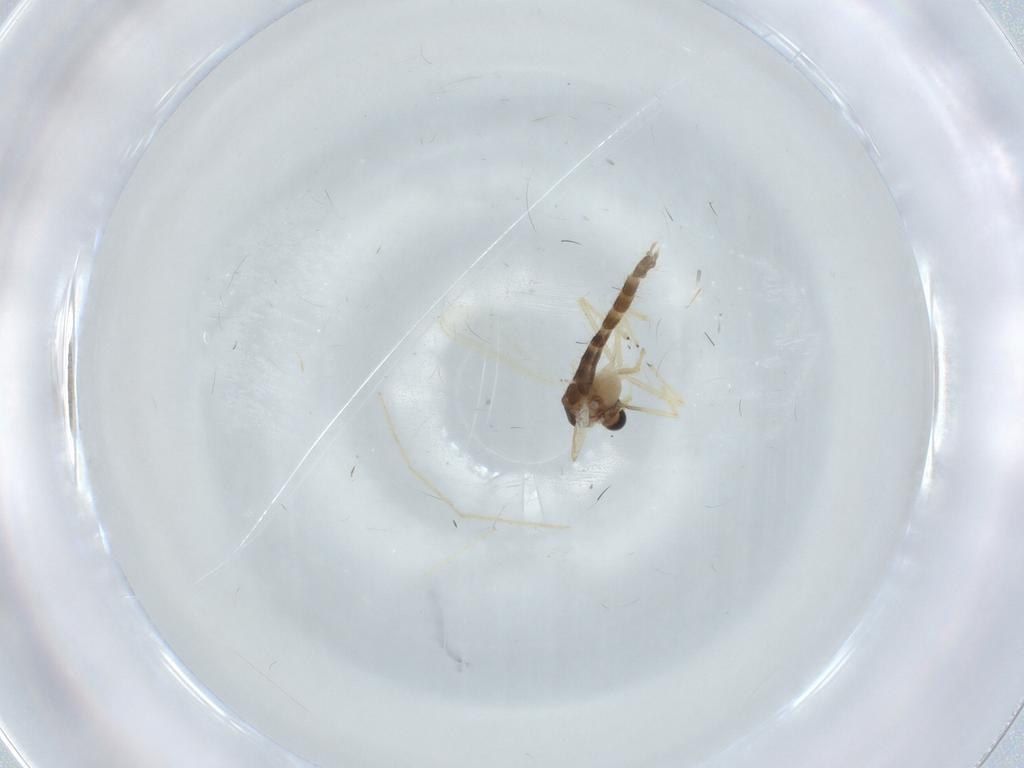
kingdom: Animalia
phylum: Arthropoda
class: Insecta
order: Diptera
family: Chironomidae
